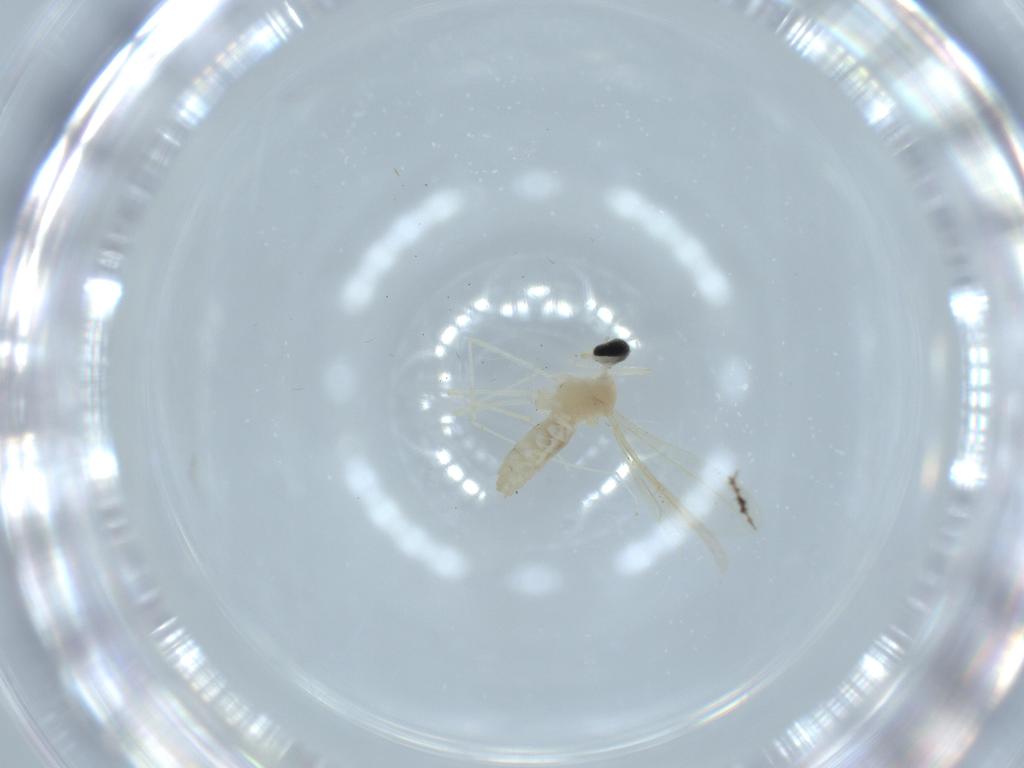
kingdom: Animalia
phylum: Arthropoda
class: Insecta
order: Diptera
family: Cecidomyiidae
